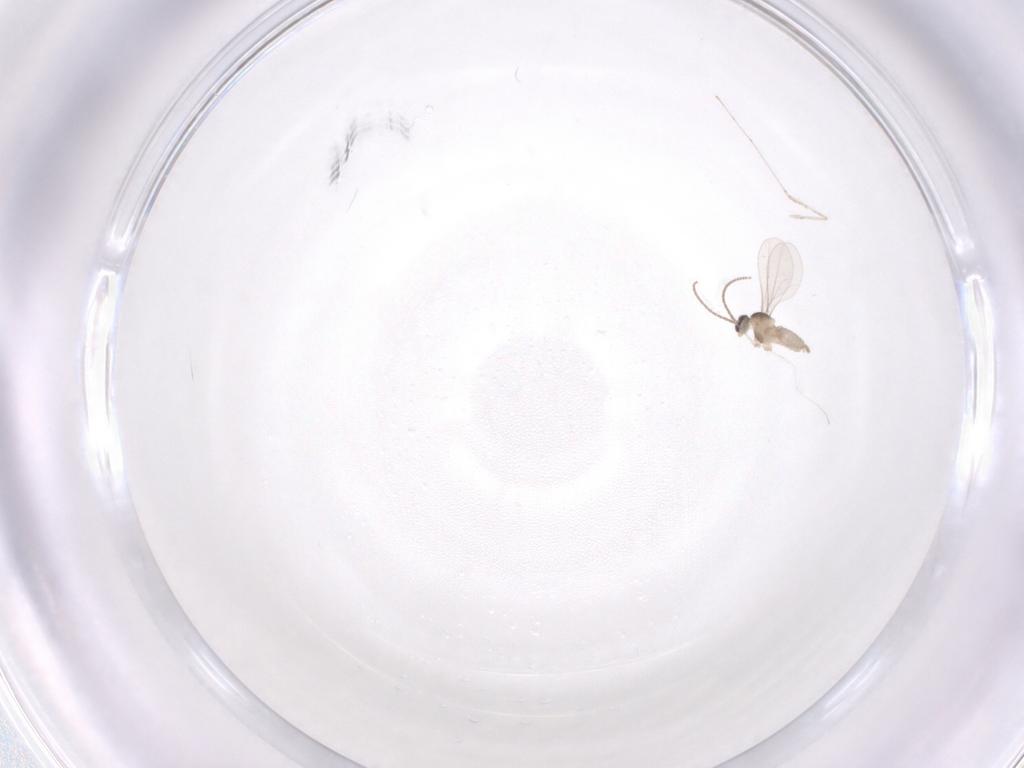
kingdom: Animalia
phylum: Arthropoda
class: Insecta
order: Diptera
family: Cecidomyiidae
